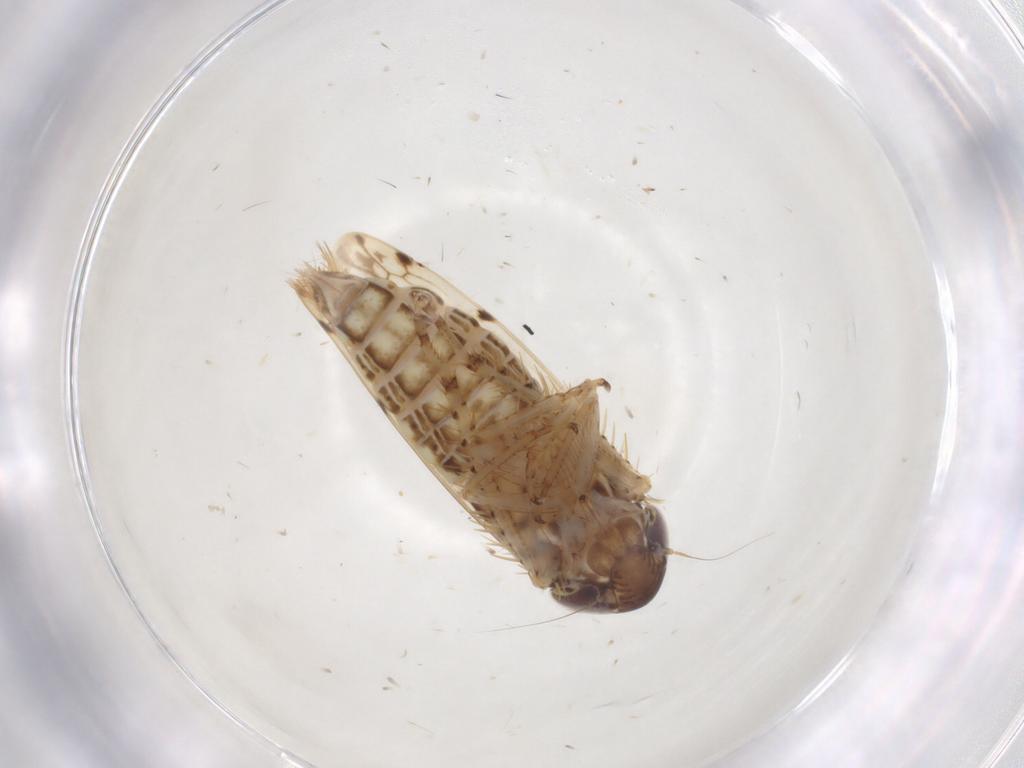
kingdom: Animalia
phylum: Arthropoda
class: Insecta
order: Hemiptera
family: Cicadellidae
